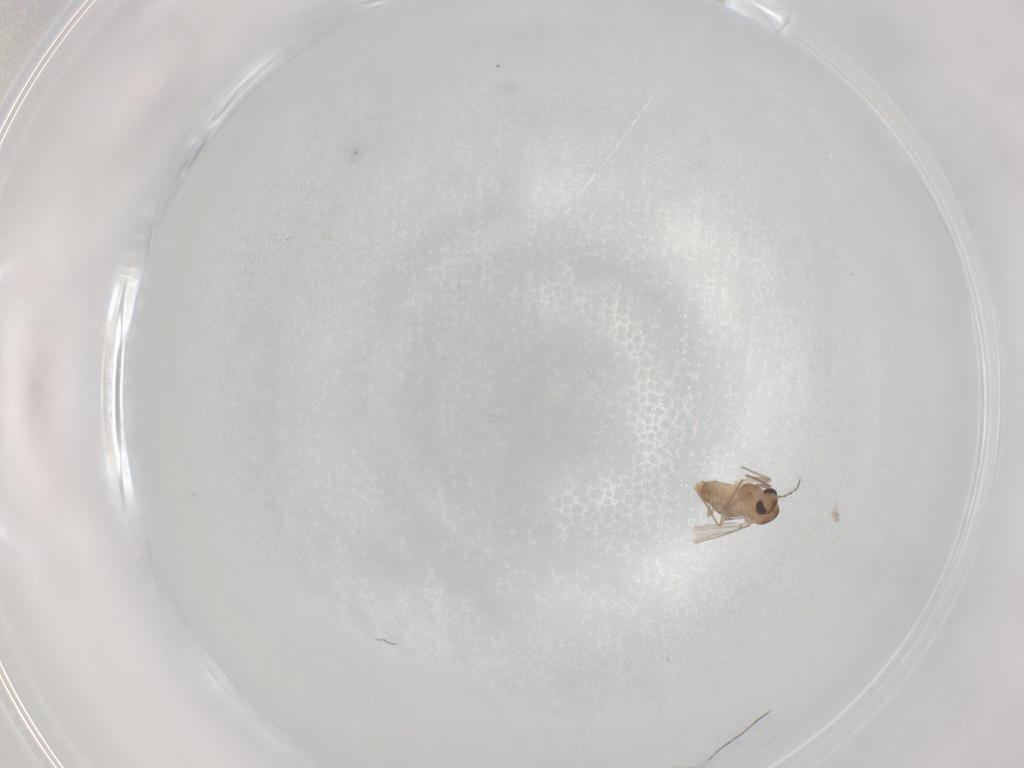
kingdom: Animalia
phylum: Arthropoda
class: Insecta
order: Diptera
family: Chironomidae
